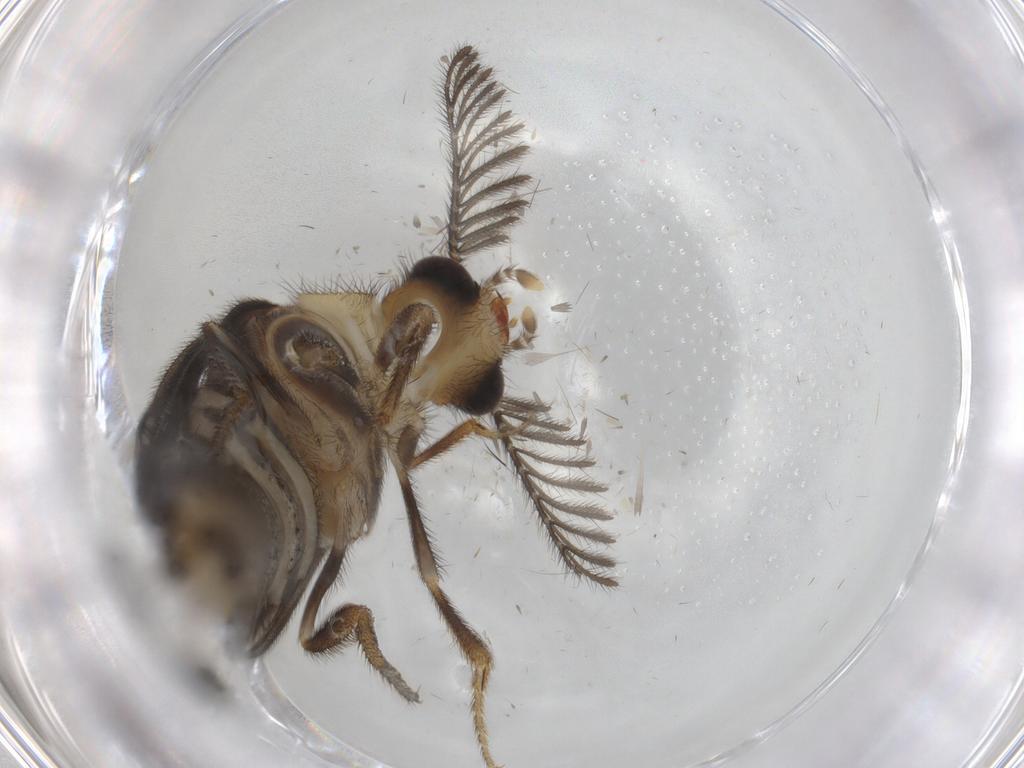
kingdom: Animalia
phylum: Arthropoda
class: Insecta
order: Coleoptera
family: Phengodidae
